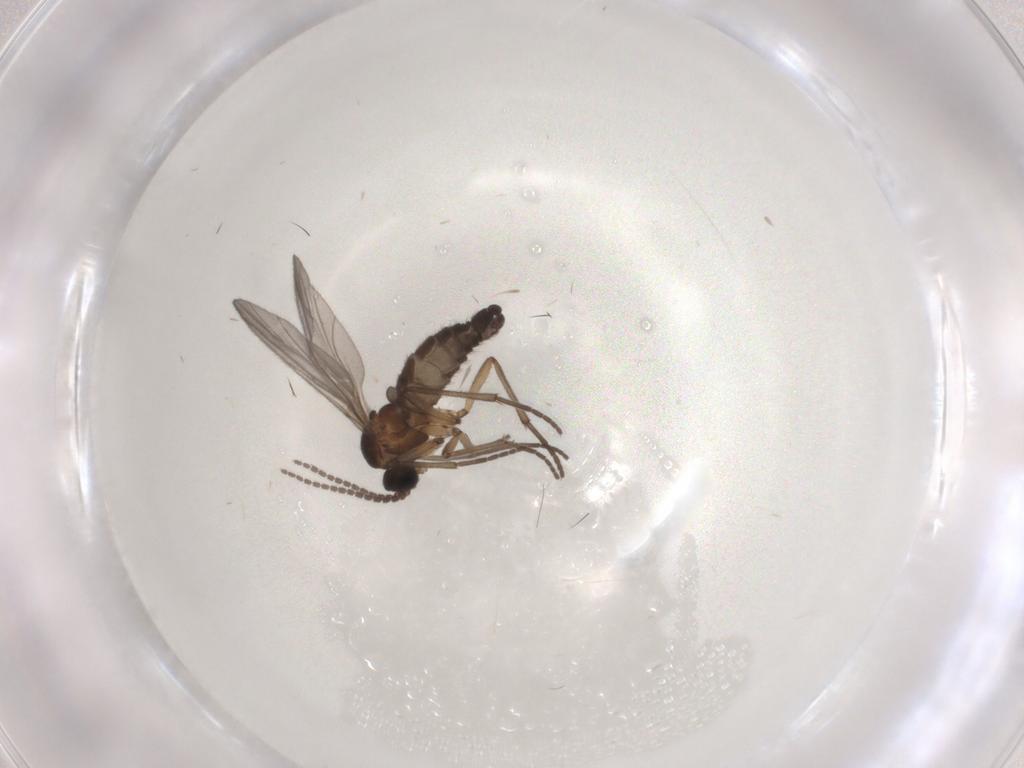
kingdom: Animalia
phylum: Arthropoda
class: Insecta
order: Diptera
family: Sciaridae
